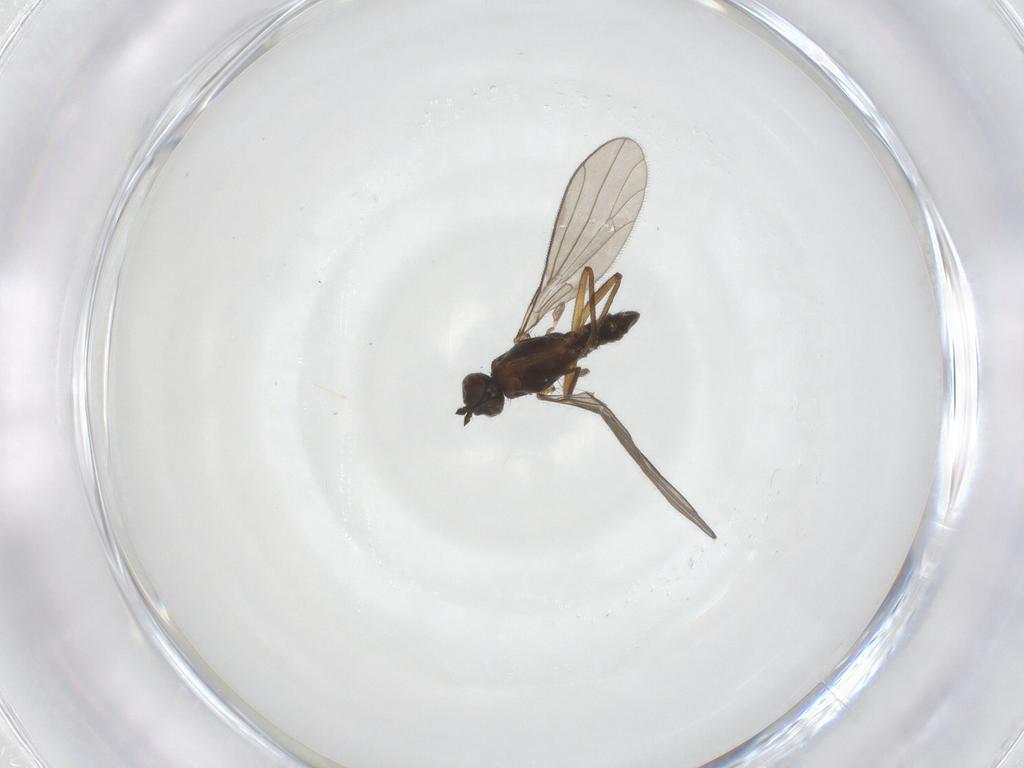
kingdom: Animalia
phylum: Arthropoda
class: Insecta
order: Diptera
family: Empididae
